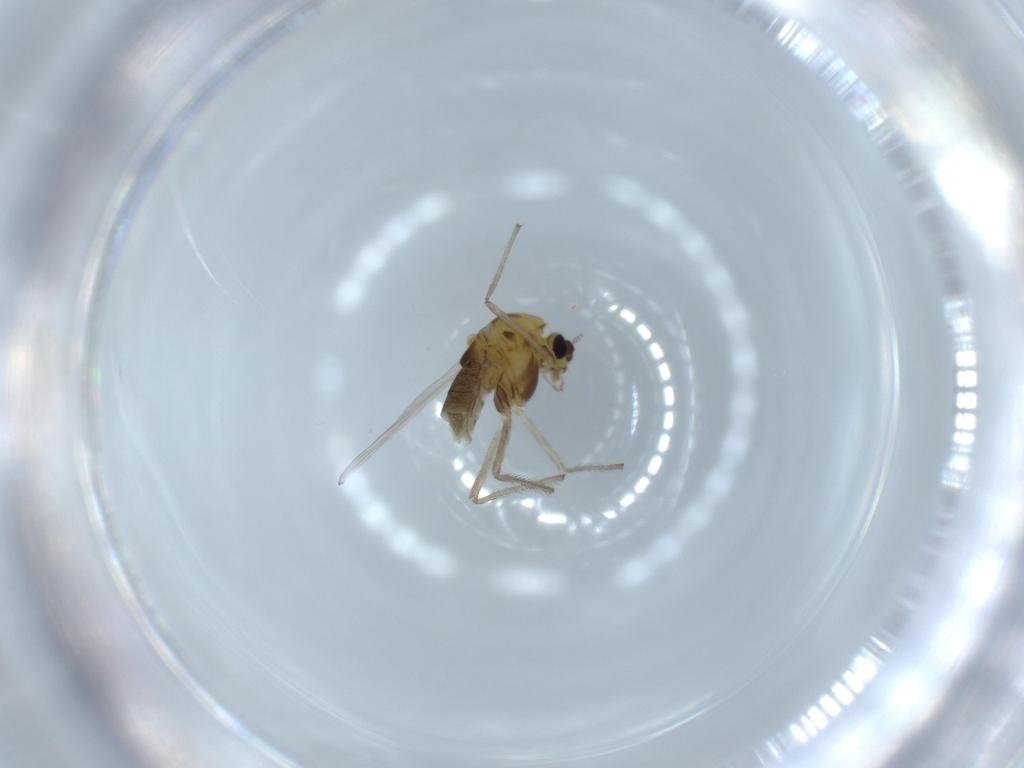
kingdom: Animalia
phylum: Arthropoda
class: Insecta
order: Diptera
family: Chironomidae
